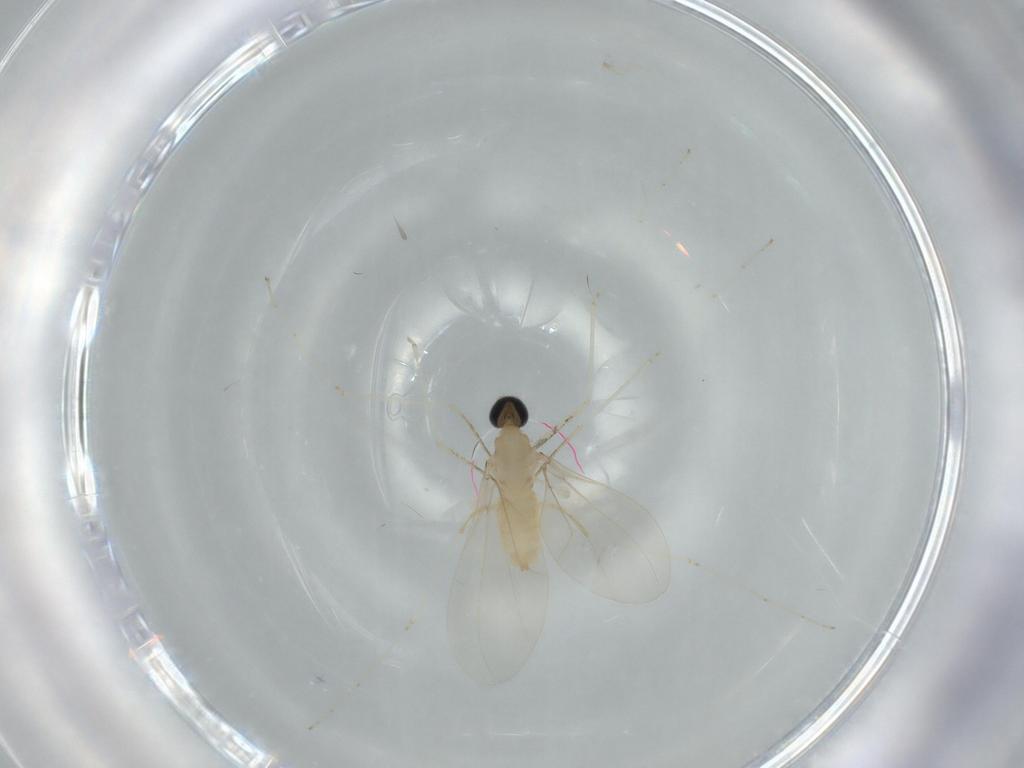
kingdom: Animalia
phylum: Arthropoda
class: Insecta
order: Diptera
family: Cecidomyiidae
